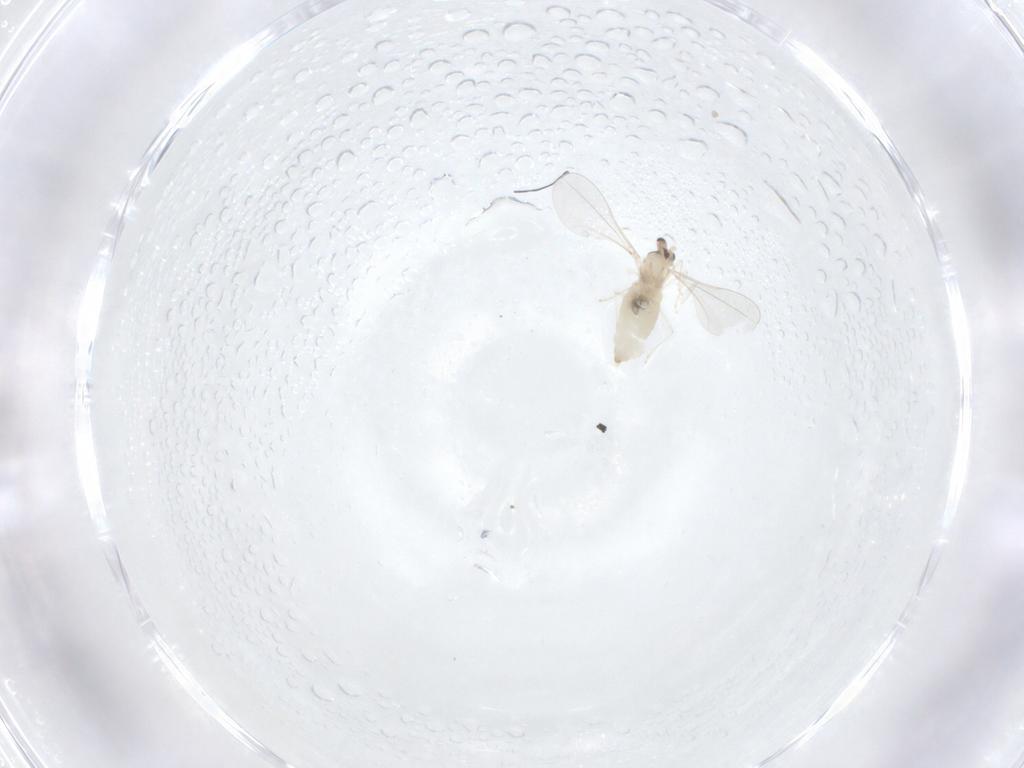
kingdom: Animalia
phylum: Arthropoda
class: Insecta
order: Diptera
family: Cecidomyiidae
